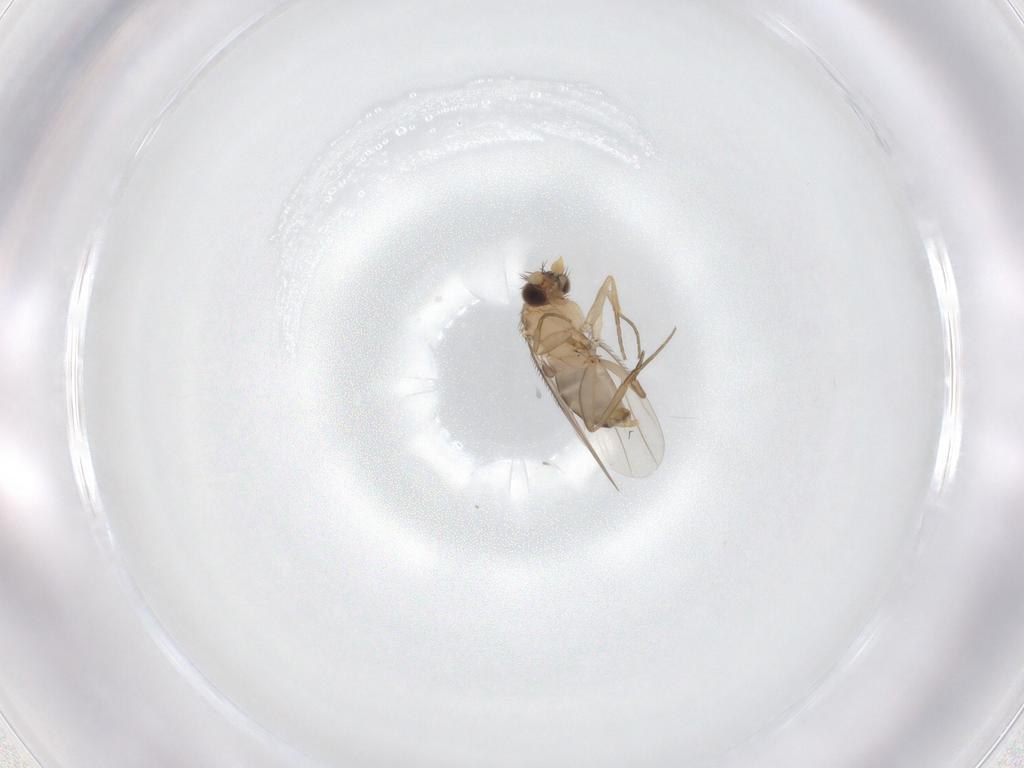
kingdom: Animalia
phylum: Arthropoda
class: Insecta
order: Diptera
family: Phoridae
